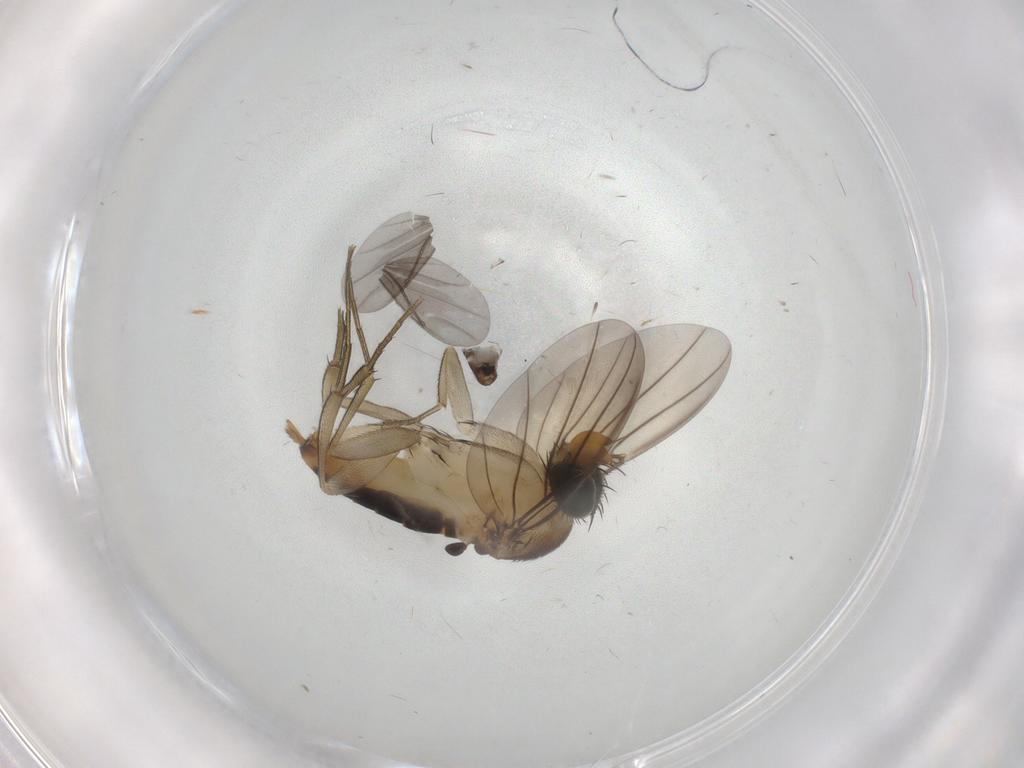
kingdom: Animalia
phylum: Arthropoda
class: Insecta
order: Diptera
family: Phoridae
